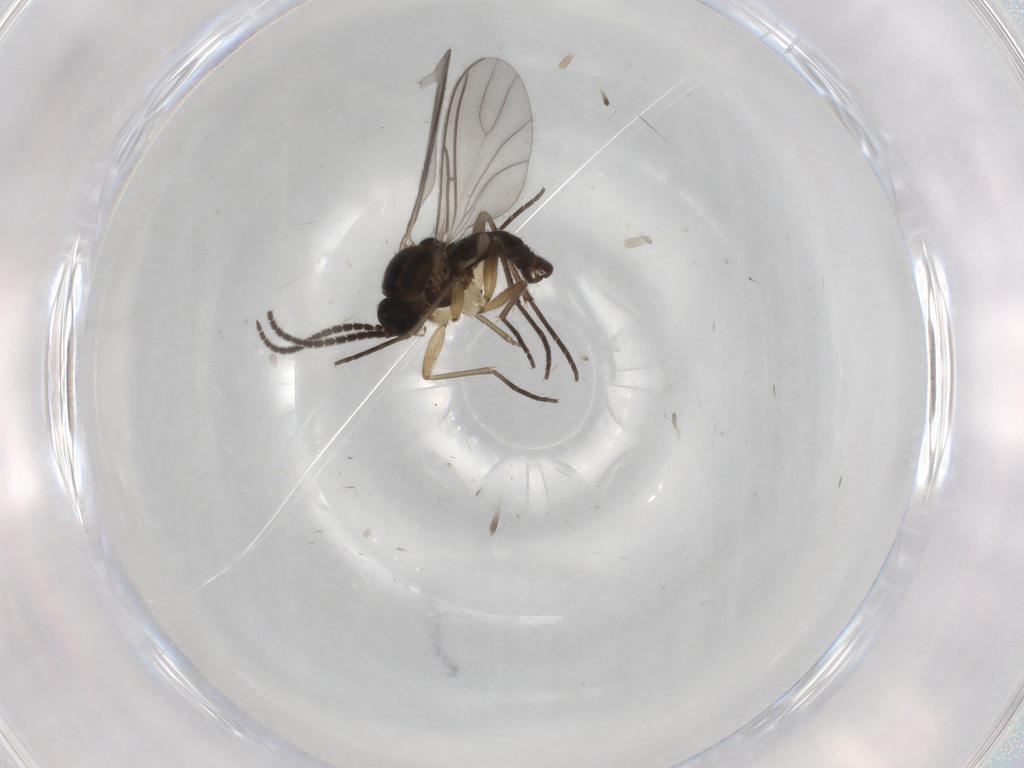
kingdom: Animalia
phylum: Arthropoda
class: Insecta
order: Diptera
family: Sciaridae
